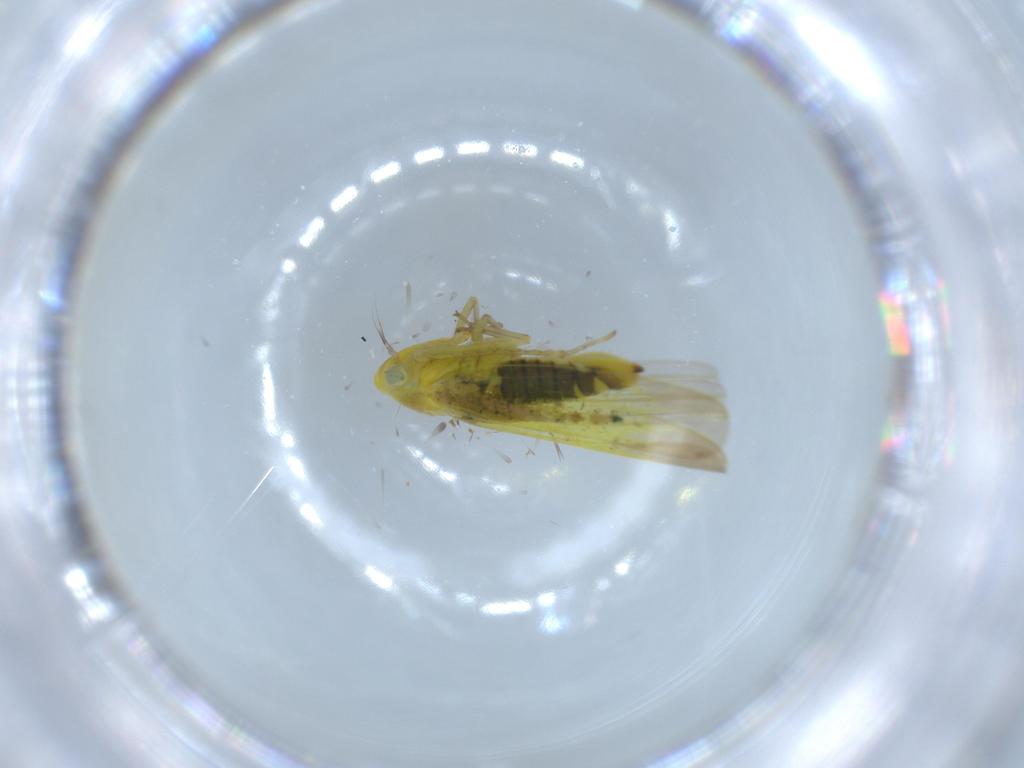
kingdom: Animalia
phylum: Arthropoda
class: Insecta
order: Hemiptera
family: Cicadellidae
